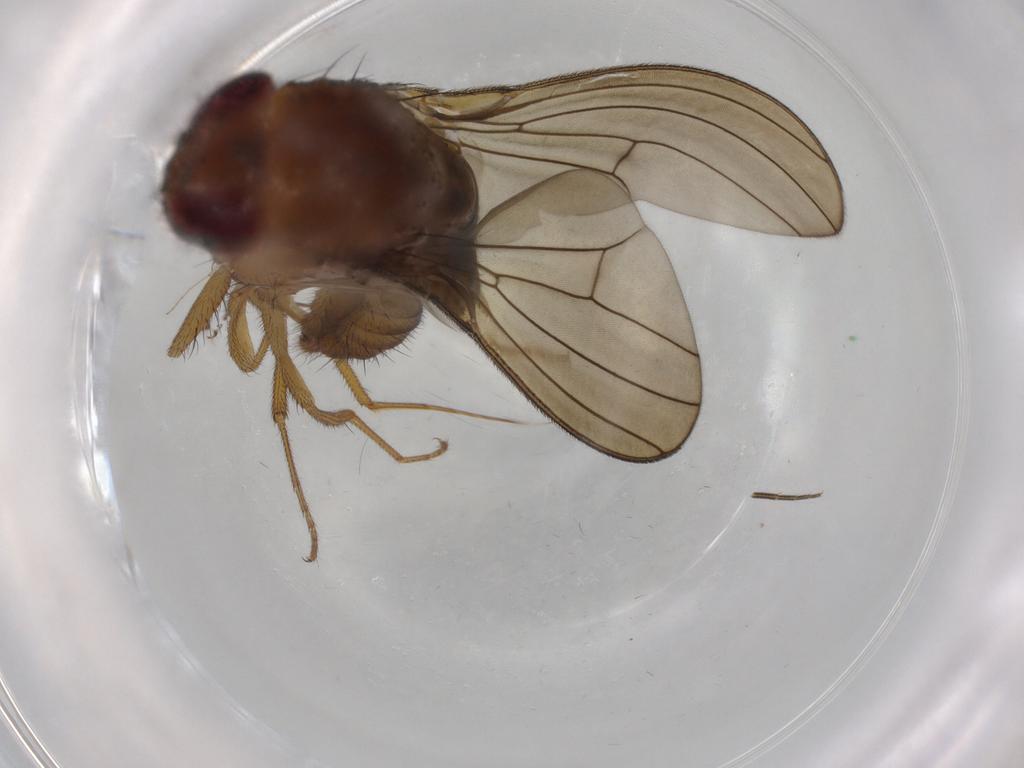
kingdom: Animalia
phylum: Arthropoda
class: Insecta
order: Diptera
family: Drosophilidae
